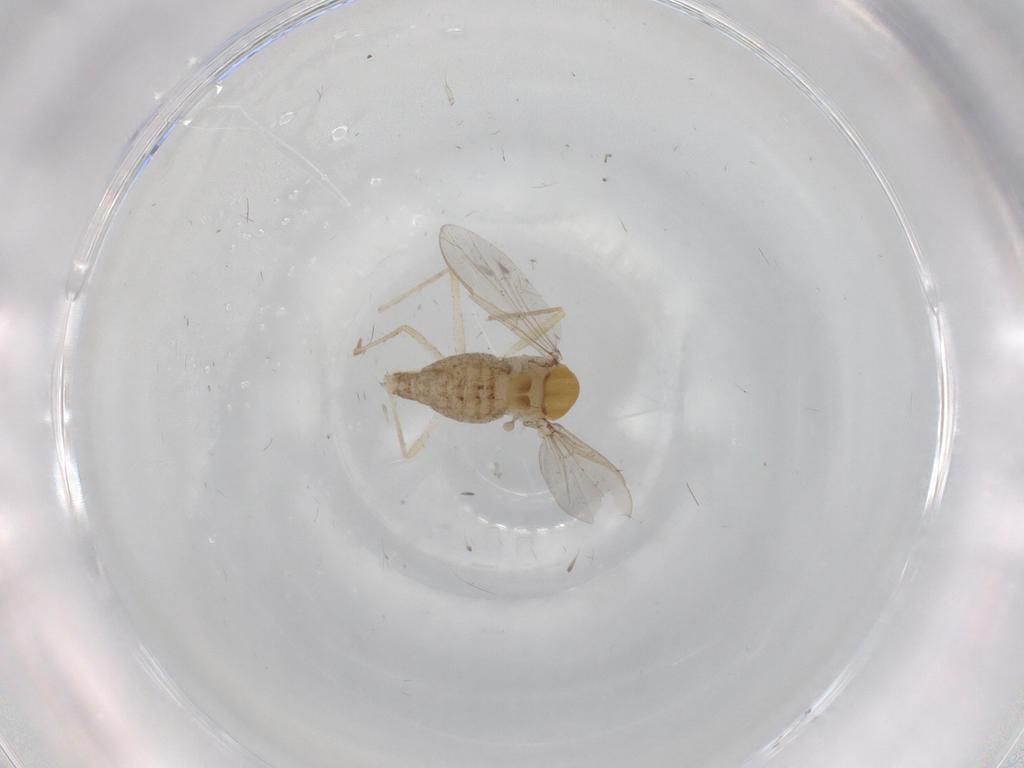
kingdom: Animalia
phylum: Arthropoda
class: Insecta
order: Diptera
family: Chironomidae
